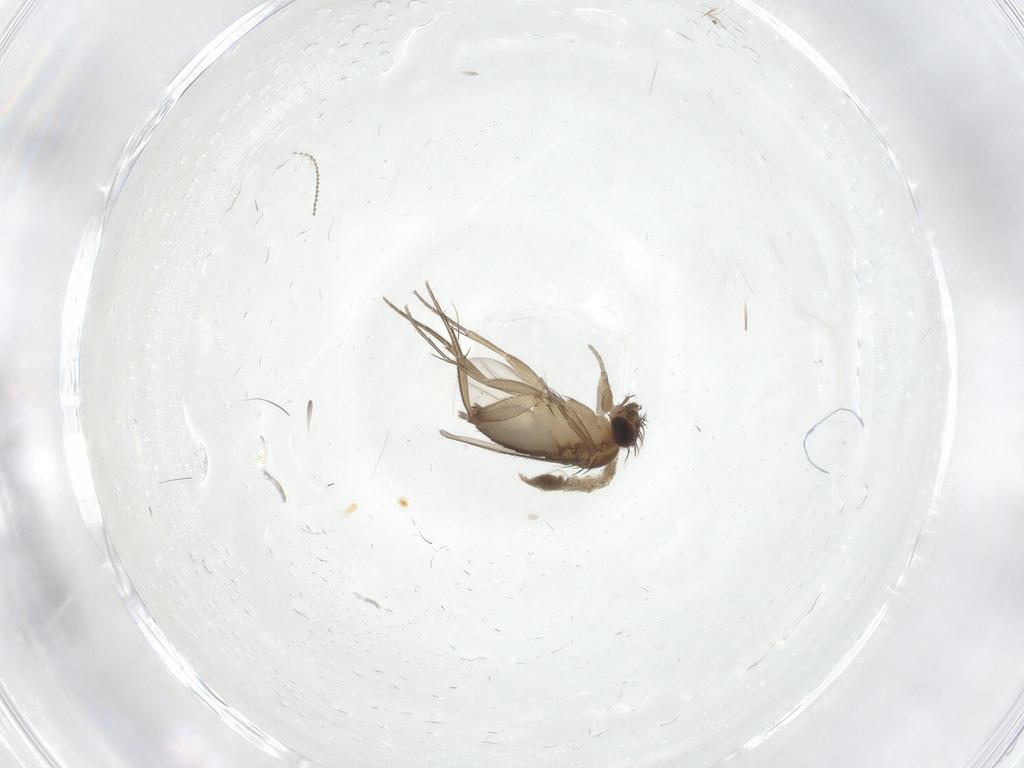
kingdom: Animalia
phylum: Arthropoda
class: Insecta
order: Diptera
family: Phoridae
